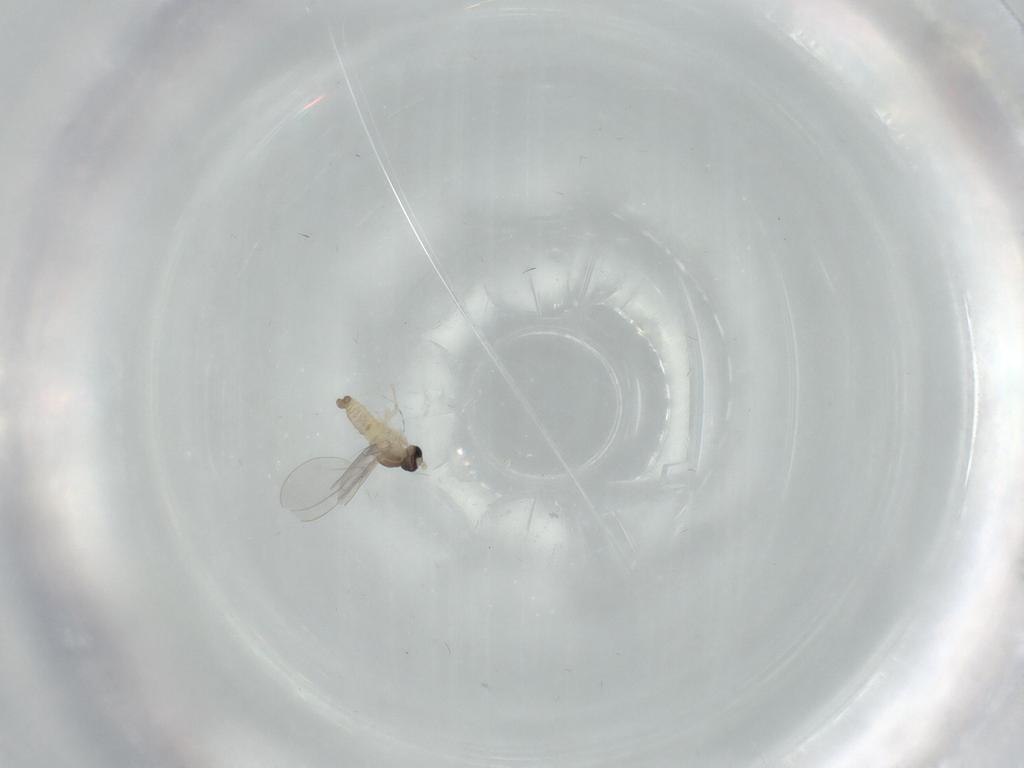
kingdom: Animalia
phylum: Arthropoda
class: Insecta
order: Diptera
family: Cecidomyiidae
